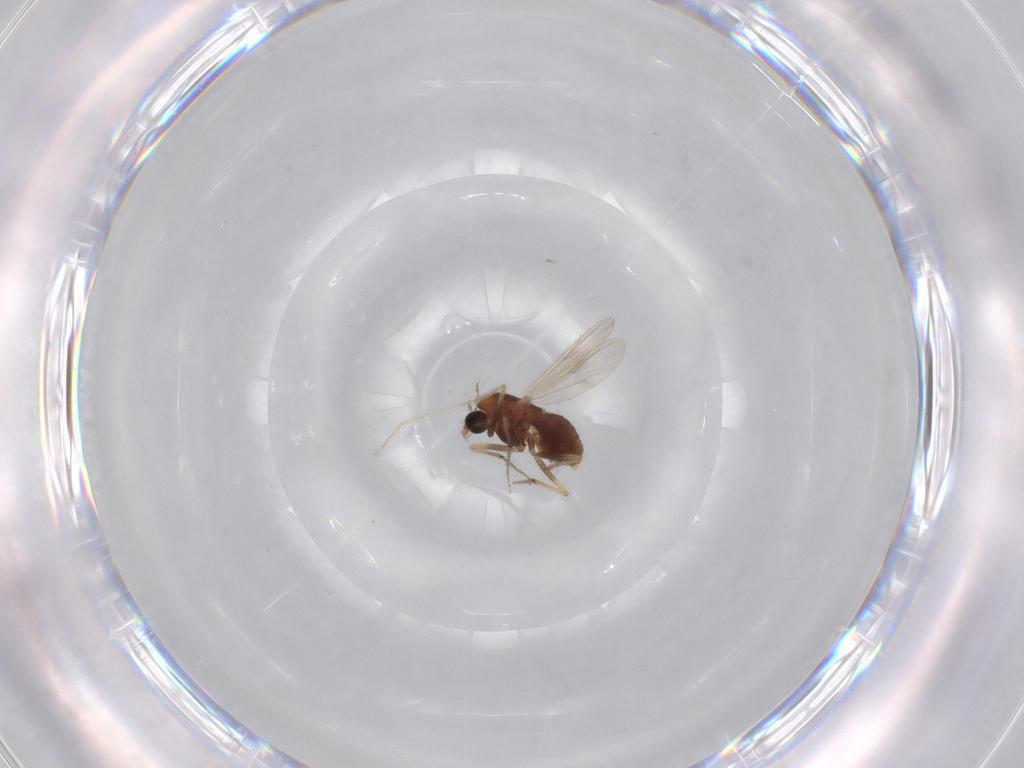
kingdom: Animalia
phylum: Arthropoda
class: Insecta
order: Diptera
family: Chironomidae
